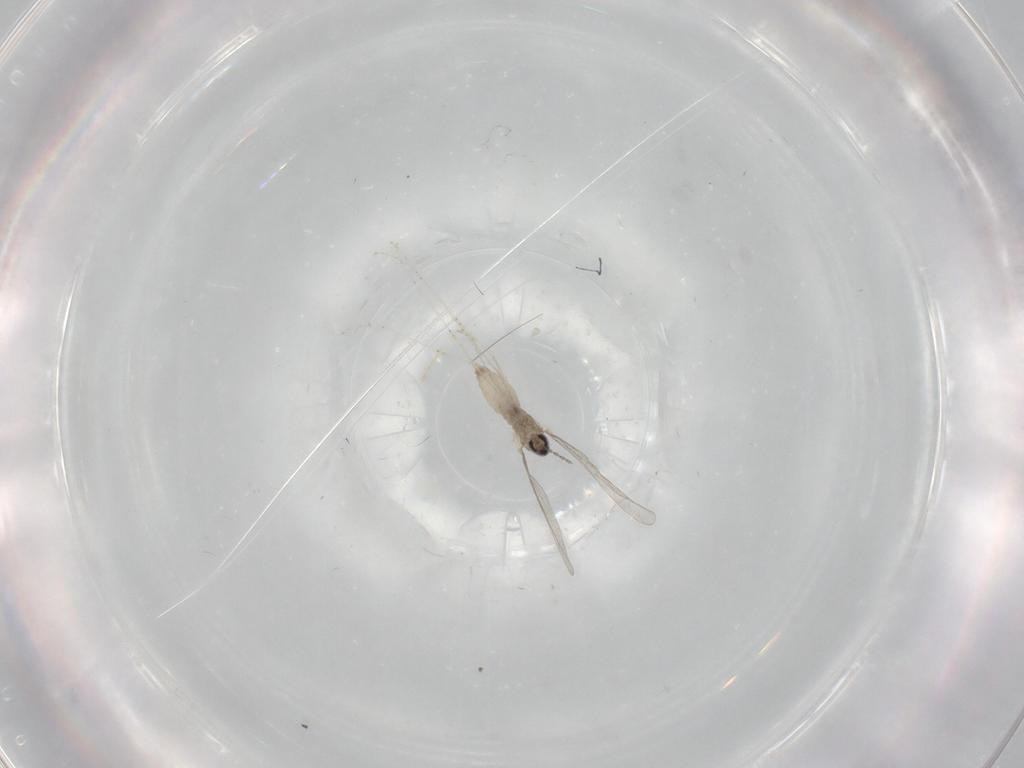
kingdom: Animalia
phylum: Arthropoda
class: Insecta
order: Diptera
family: Cecidomyiidae
